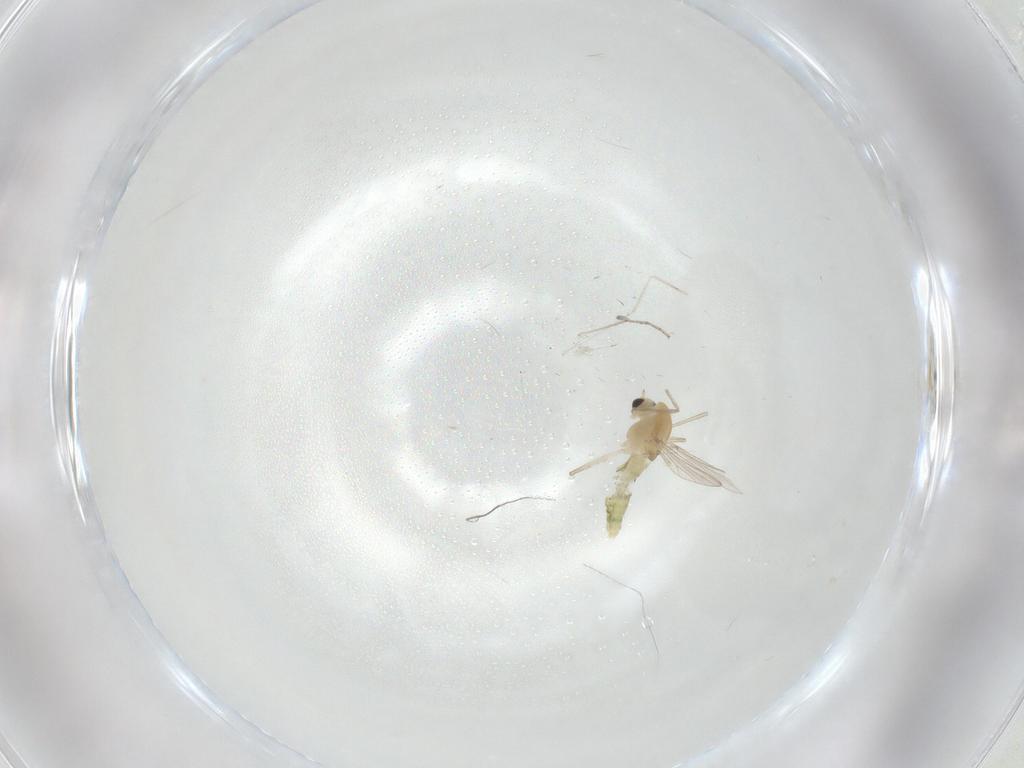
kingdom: Animalia
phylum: Arthropoda
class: Insecta
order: Diptera
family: Chironomidae
